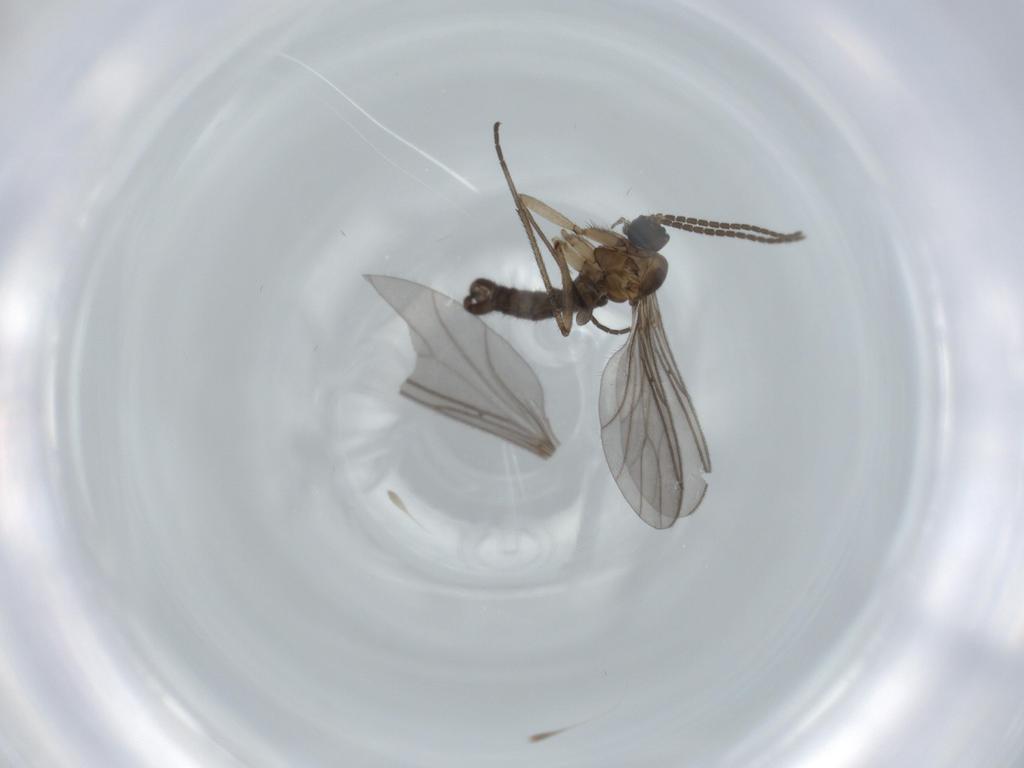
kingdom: Animalia
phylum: Arthropoda
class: Insecta
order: Diptera
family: Sciaridae
